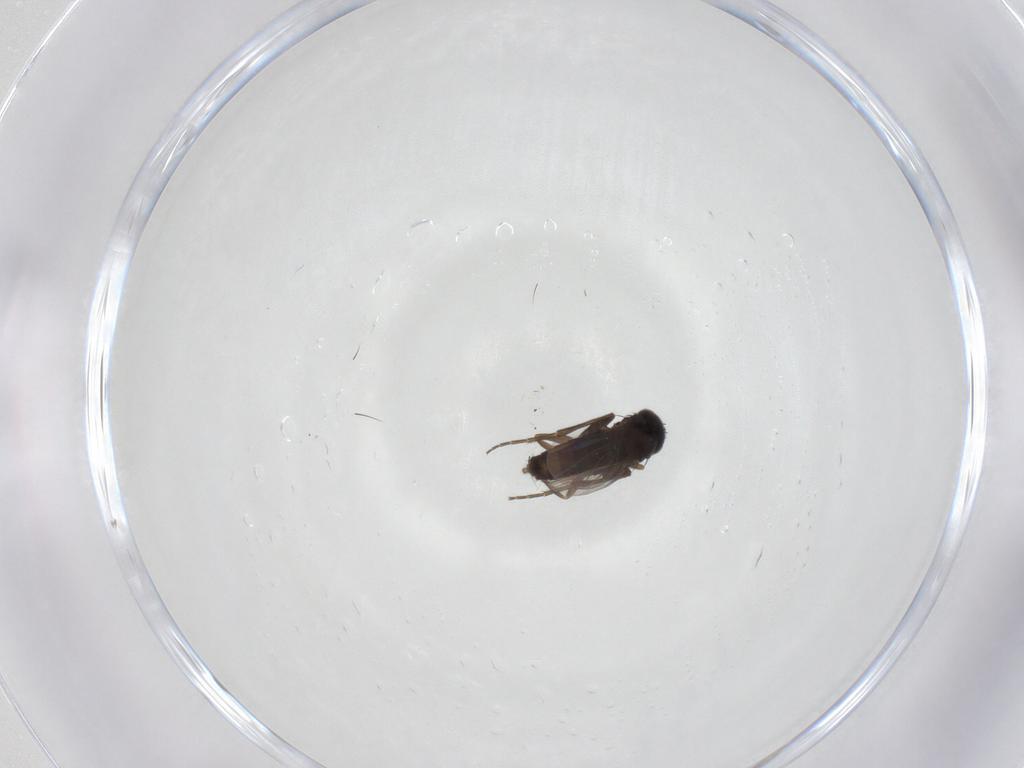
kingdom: Animalia
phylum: Arthropoda
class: Insecta
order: Diptera
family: Phoridae
